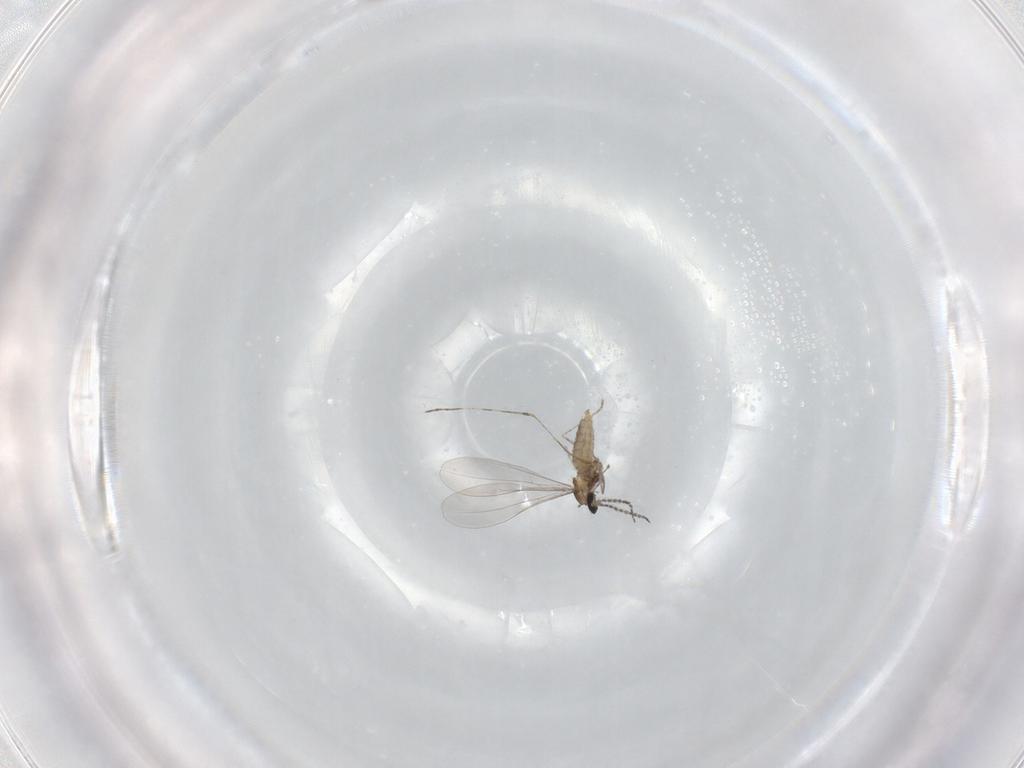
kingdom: Animalia
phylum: Arthropoda
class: Insecta
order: Diptera
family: Cecidomyiidae
